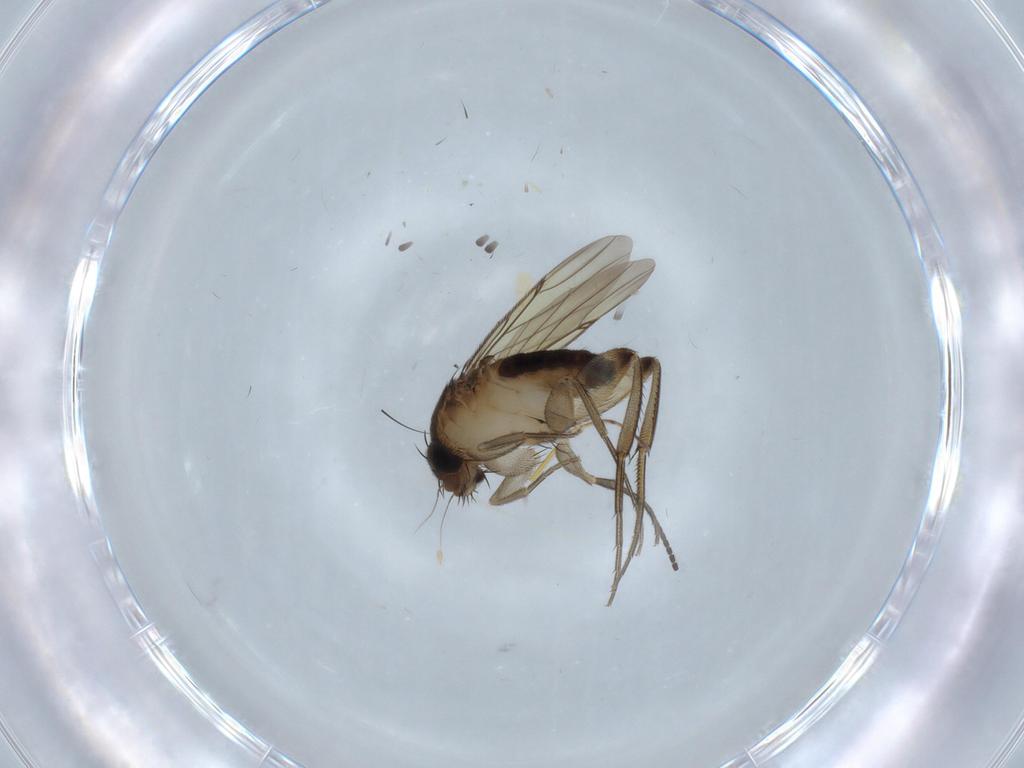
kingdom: Animalia
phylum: Arthropoda
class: Insecta
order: Diptera
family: Phoridae
